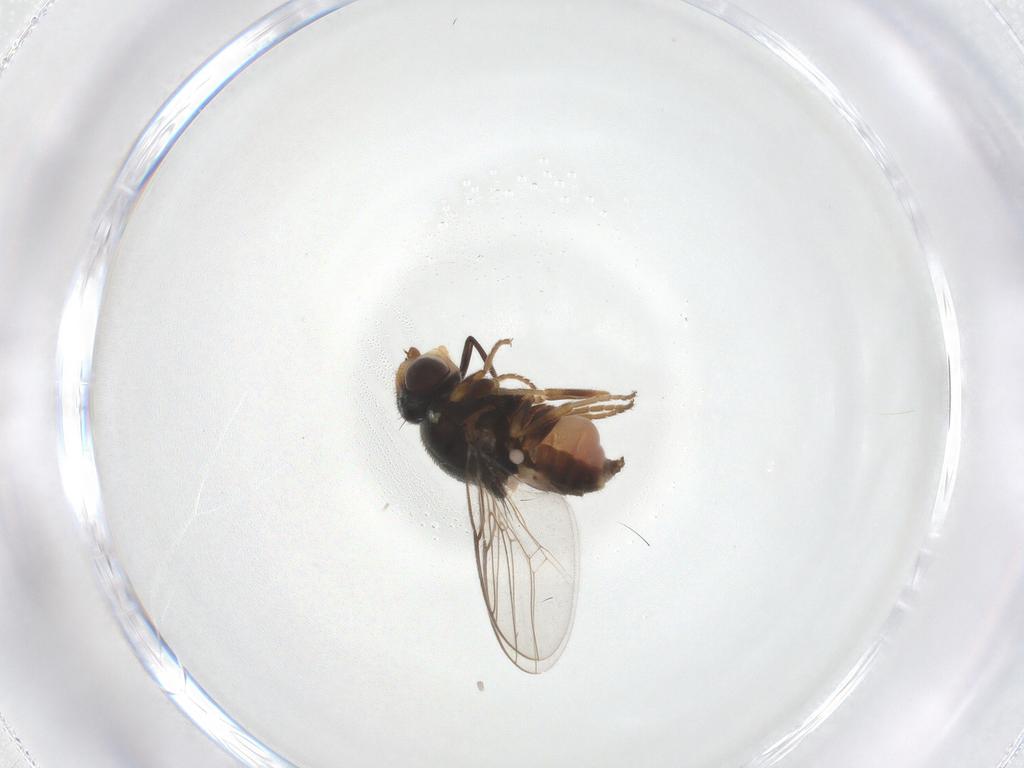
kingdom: Animalia
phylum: Arthropoda
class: Insecta
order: Diptera
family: Chloropidae
